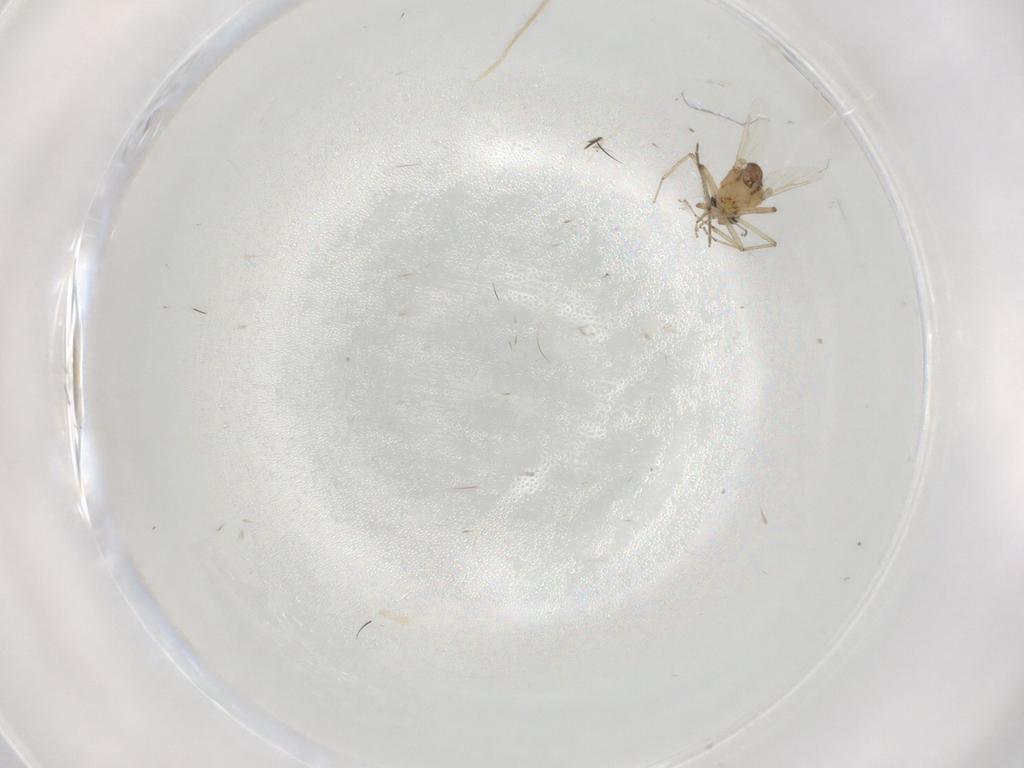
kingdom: Animalia
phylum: Arthropoda
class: Insecta
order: Diptera
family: Ceratopogonidae
